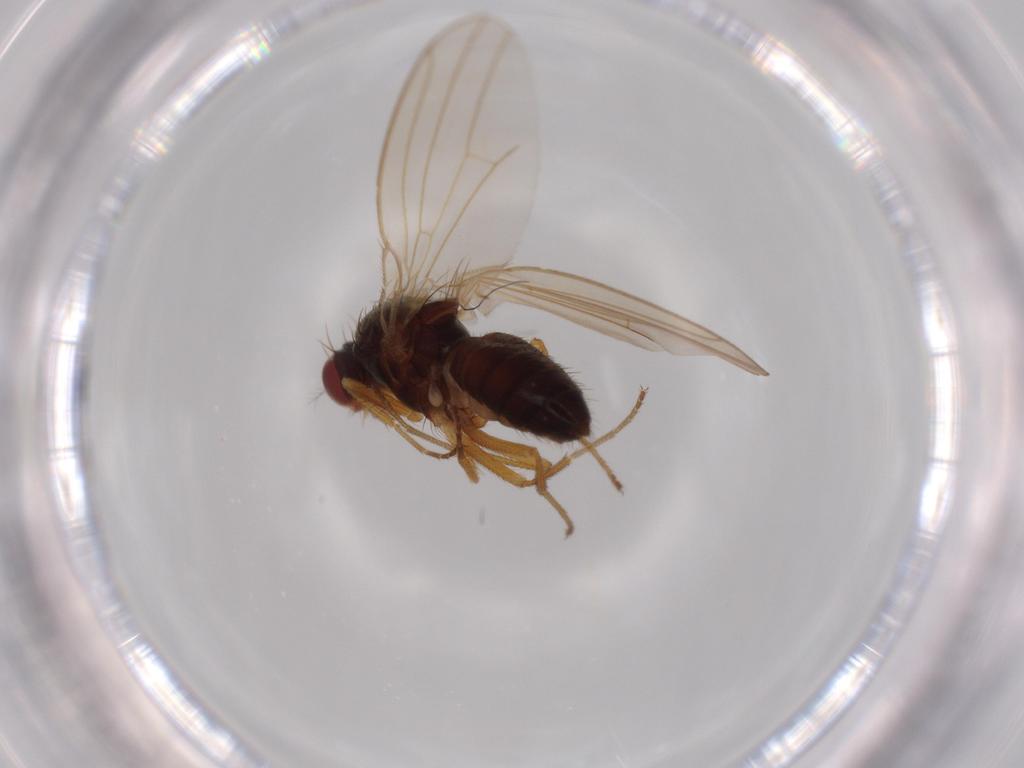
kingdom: Animalia
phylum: Arthropoda
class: Insecta
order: Diptera
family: Drosophilidae
